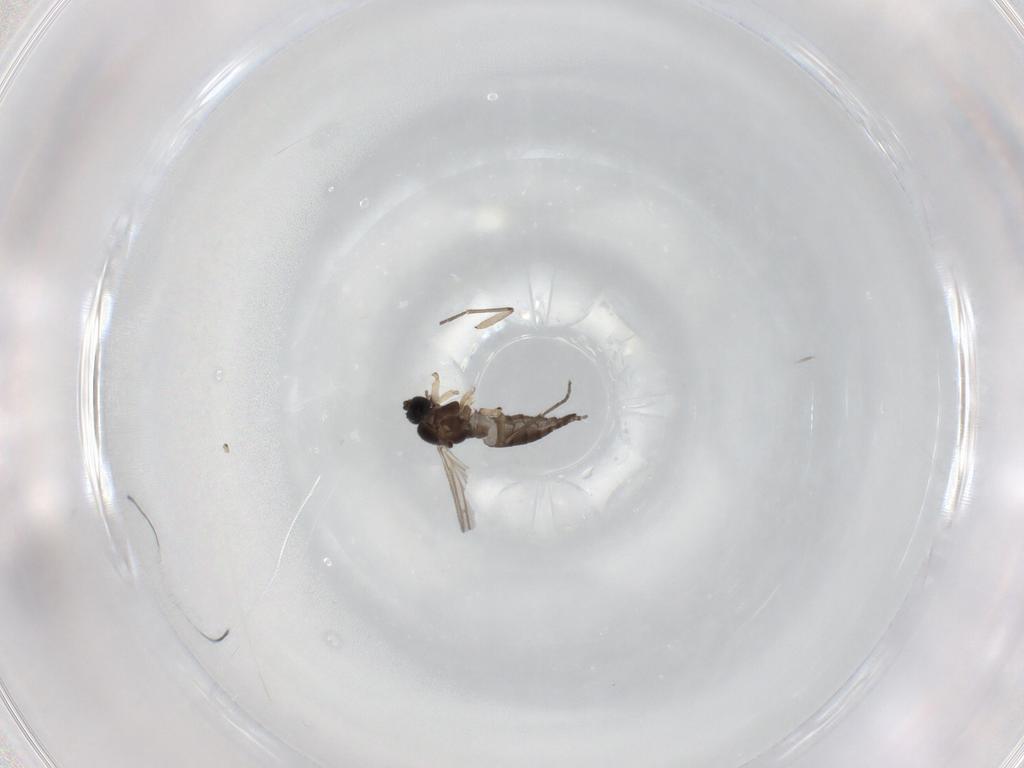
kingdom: Animalia
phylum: Arthropoda
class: Insecta
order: Diptera
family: Sciaridae
